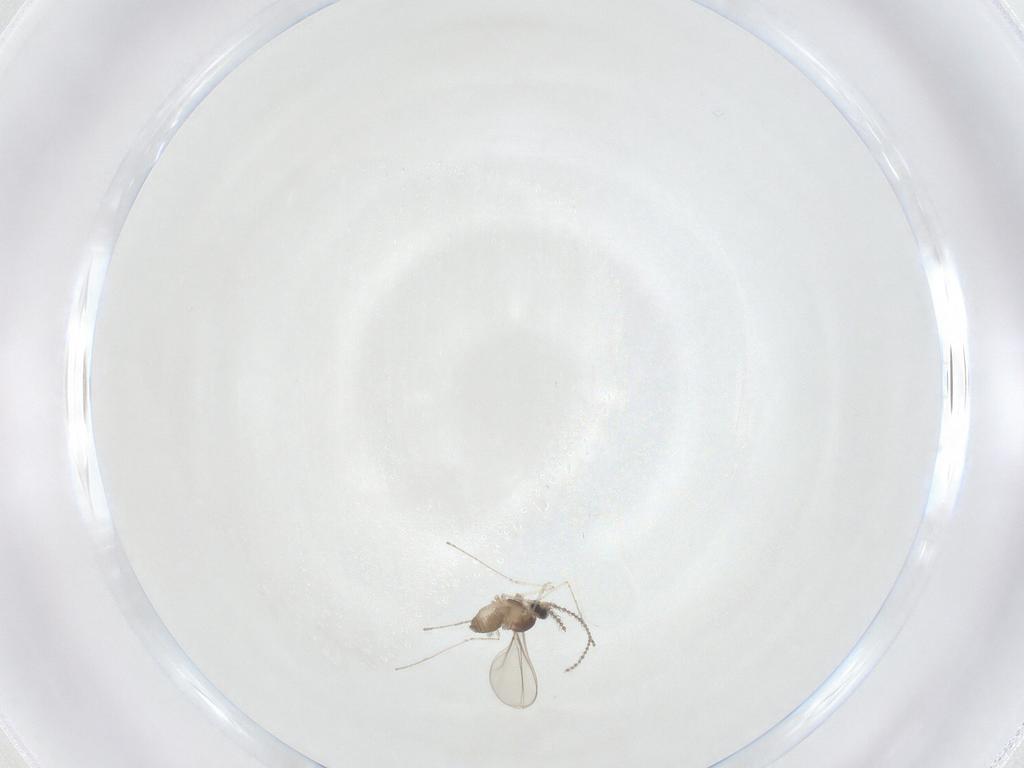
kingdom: Animalia
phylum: Arthropoda
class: Insecta
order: Diptera
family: Cecidomyiidae
